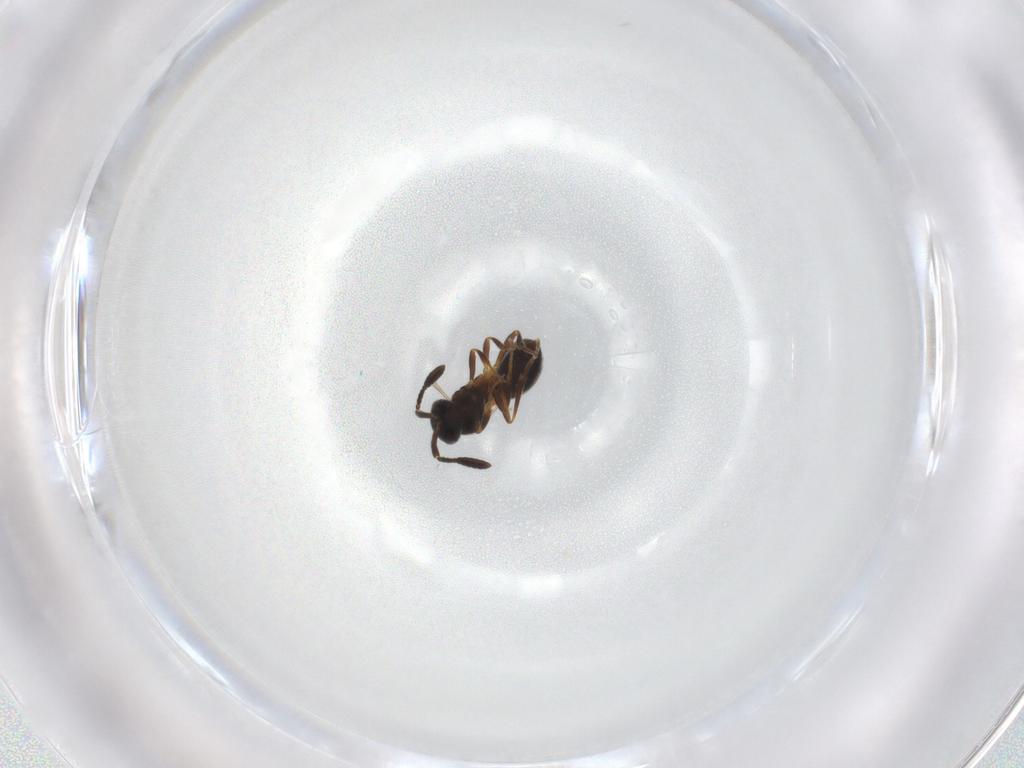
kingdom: Animalia
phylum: Arthropoda
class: Insecta
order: Hymenoptera
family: Scelionidae
